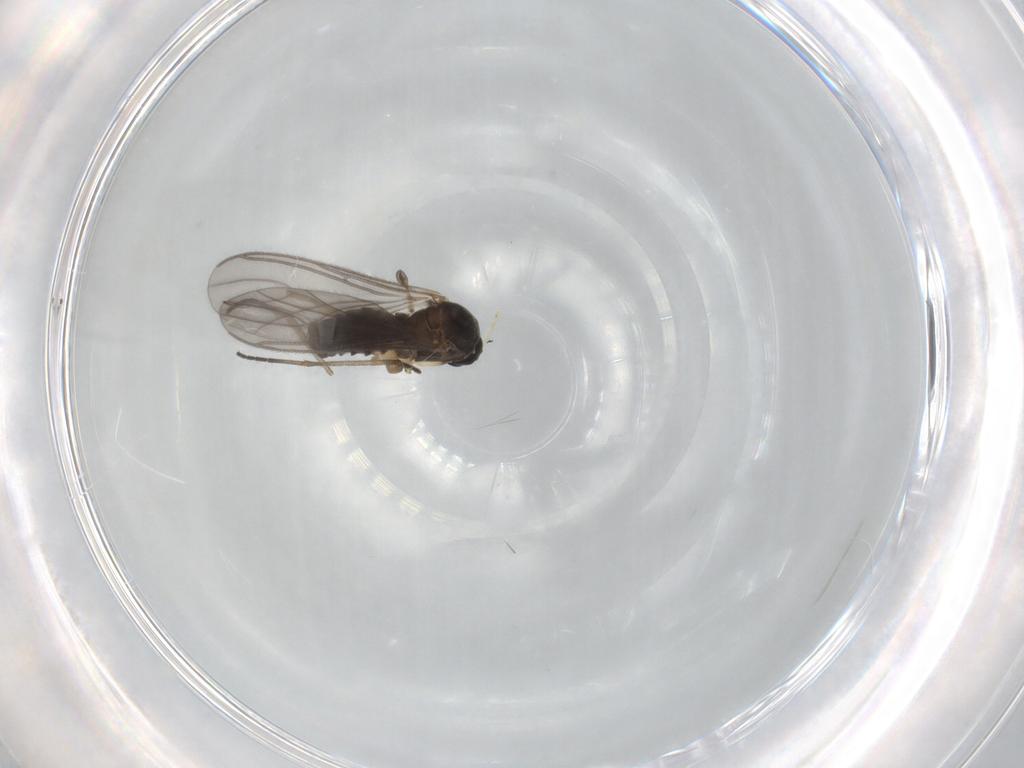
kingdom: Animalia
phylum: Arthropoda
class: Insecta
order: Diptera
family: Sciaridae
